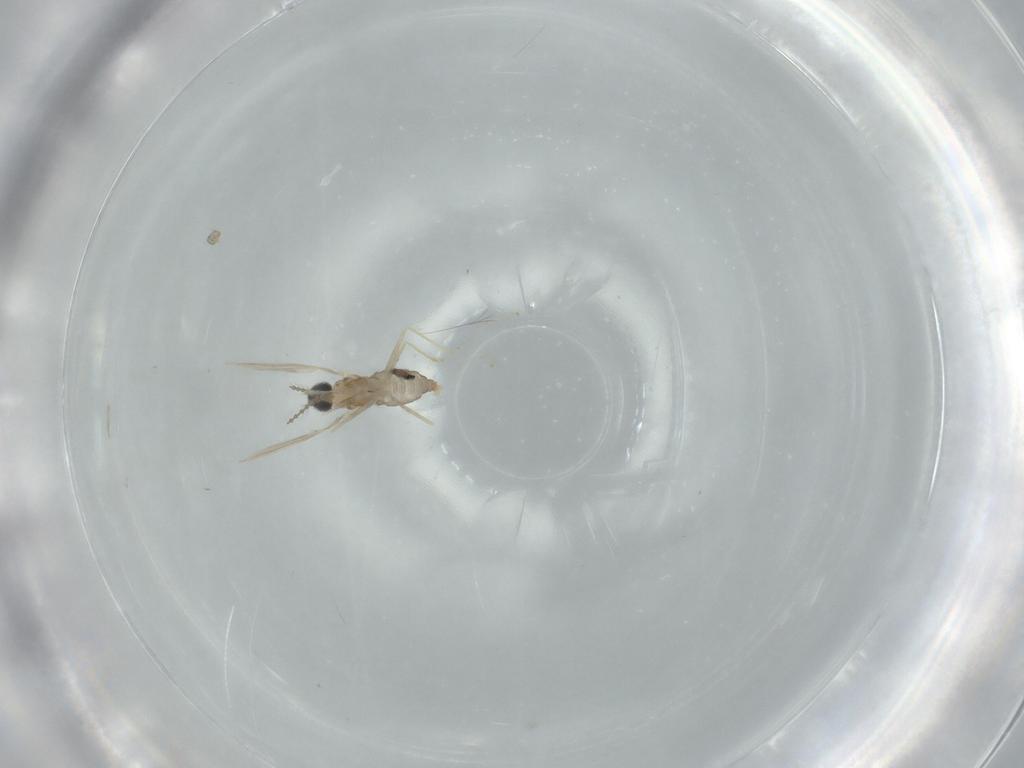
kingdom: Animalia
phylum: Arthropoda
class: Insecta
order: Diptera
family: Cecidomyiidae
